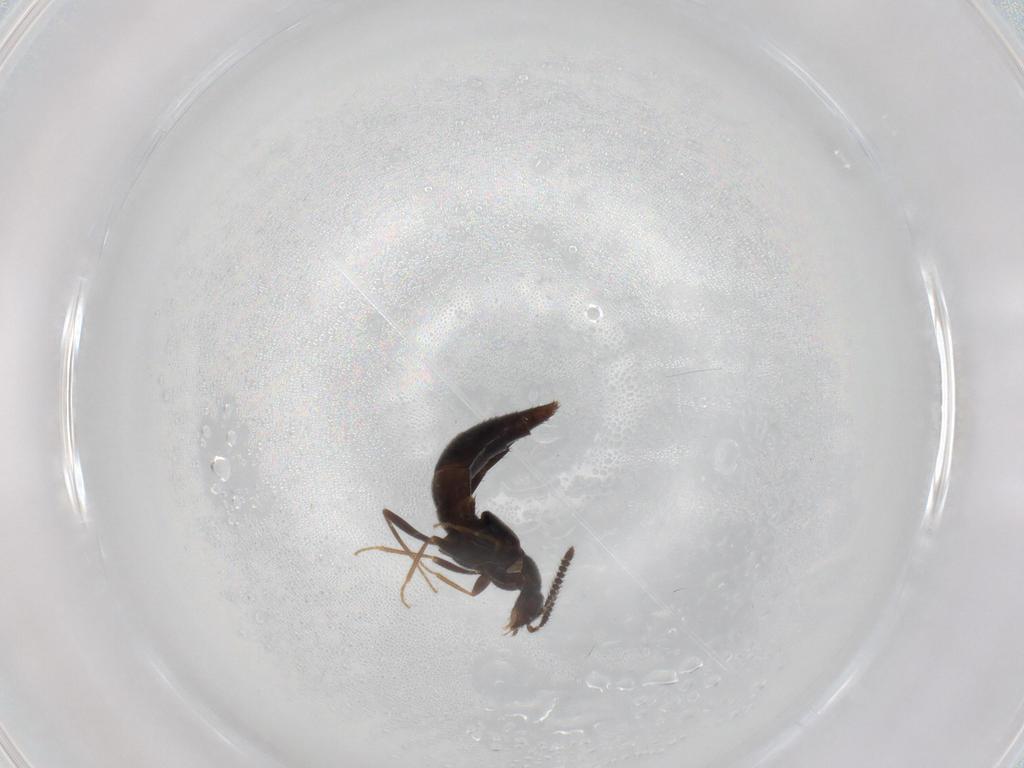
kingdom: Animalia
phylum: Arthropoda
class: Insecta
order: Coleoptera
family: Staphylinidae
